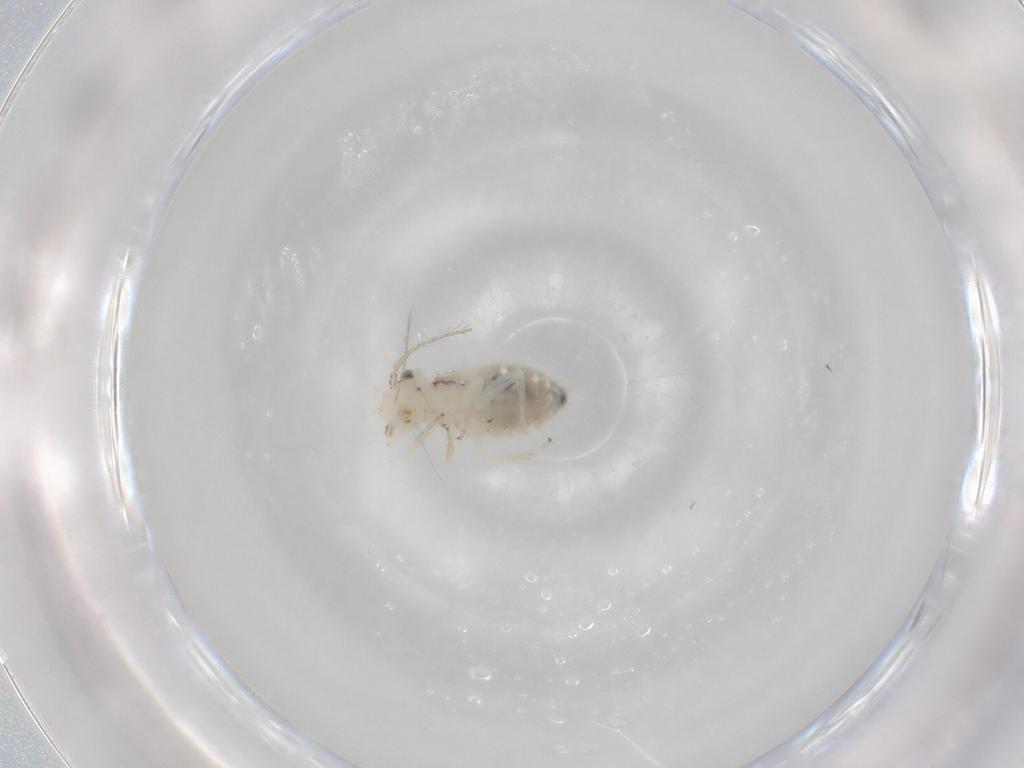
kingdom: Animalia
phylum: Arthropoda
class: Insecta
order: Psocodea
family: Pseudocaeciliidae
